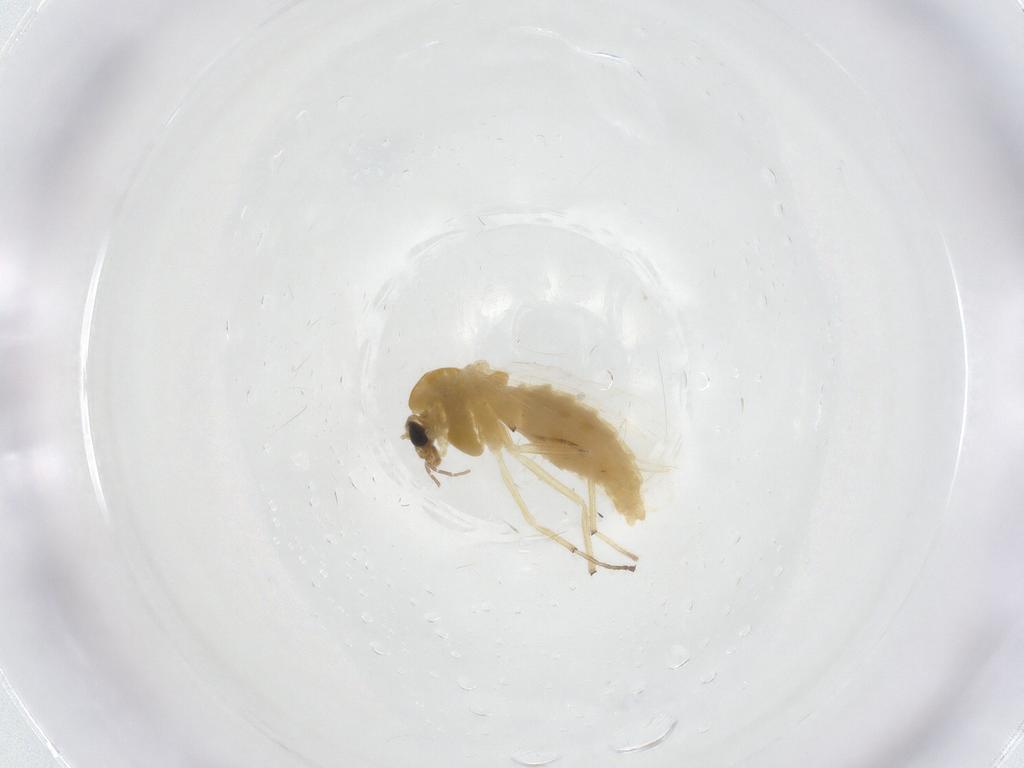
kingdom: Animalia
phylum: Arthropoda
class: Insecta
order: Diptera
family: Chironomidae
